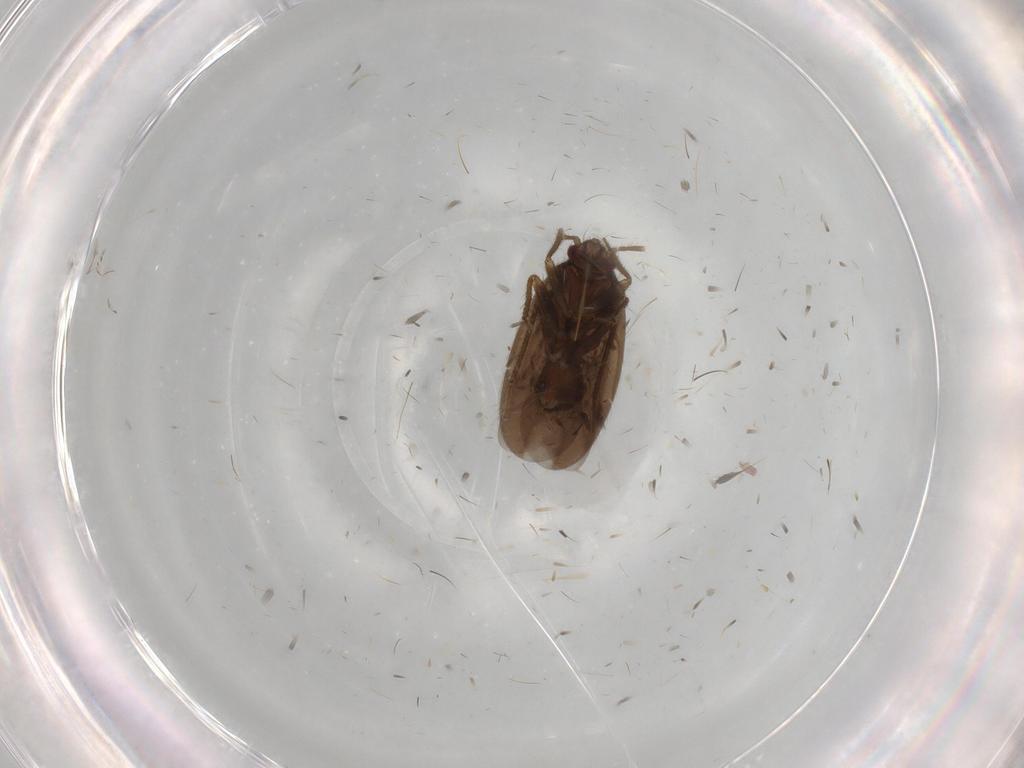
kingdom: Animalia
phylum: Arthropoda
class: Insecta
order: Hemiptera
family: Ceratocombidae
